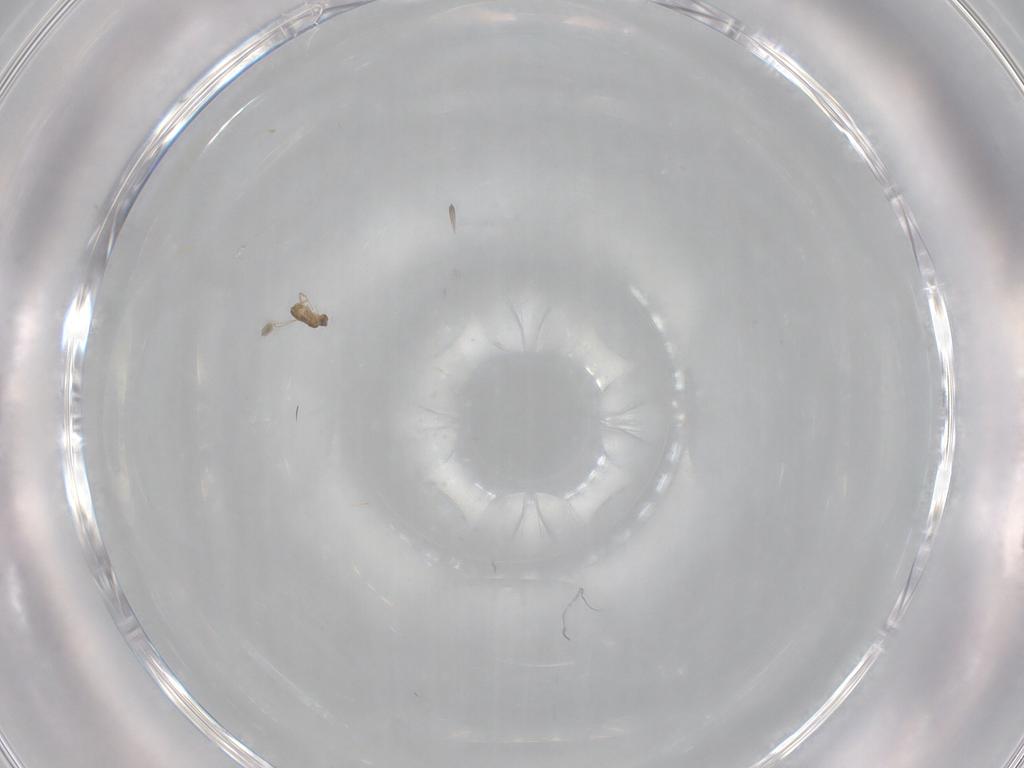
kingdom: Animalia
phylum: Arthropoda
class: Insecta
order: Hymenoptera
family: Mymaridae
